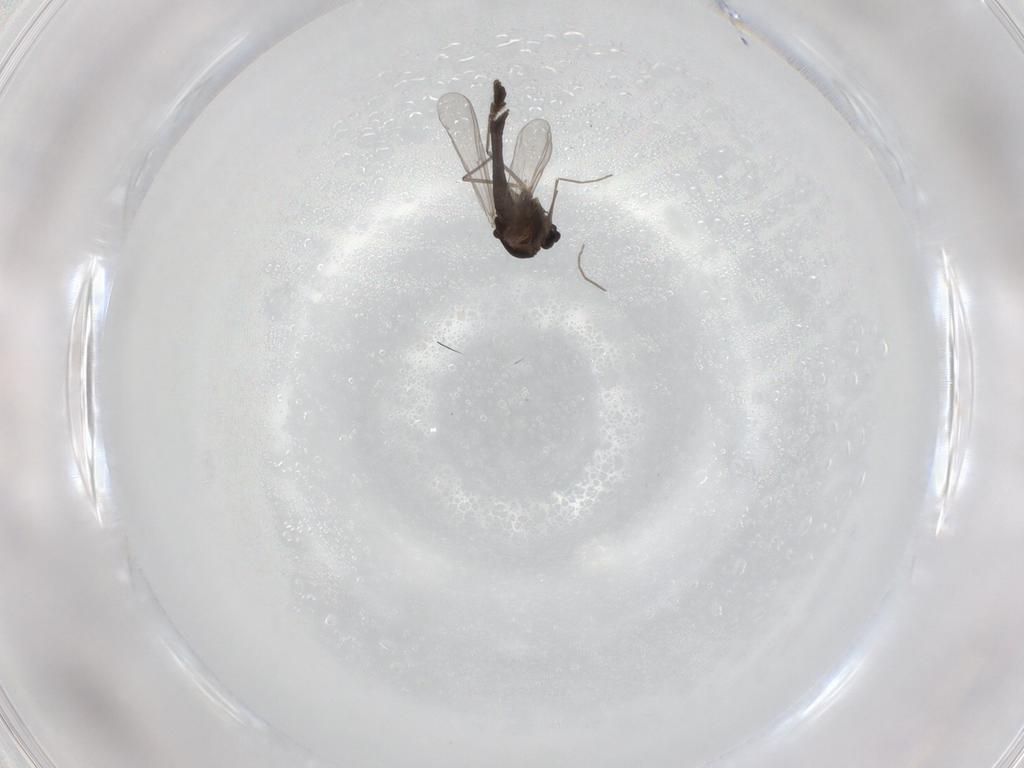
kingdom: Animalia
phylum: Arthropoda
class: Insecta
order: Diptera
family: Chironomidae
